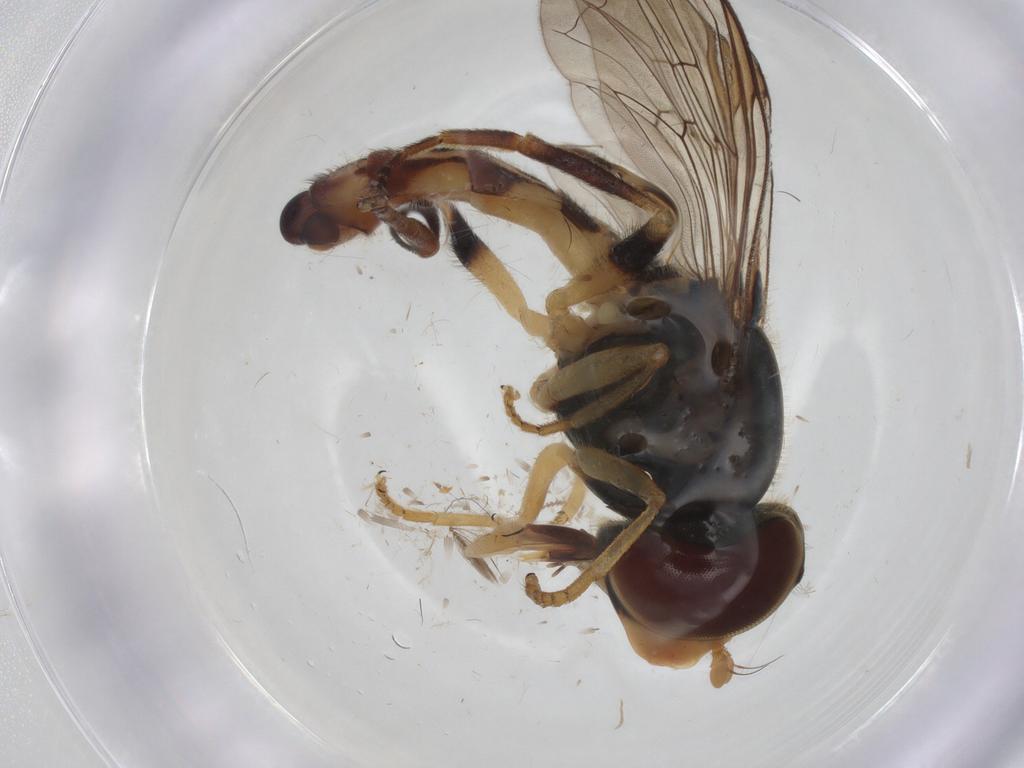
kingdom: Animalia
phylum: Arthropoda
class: Insecta
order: Diptera
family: Syrphidae
